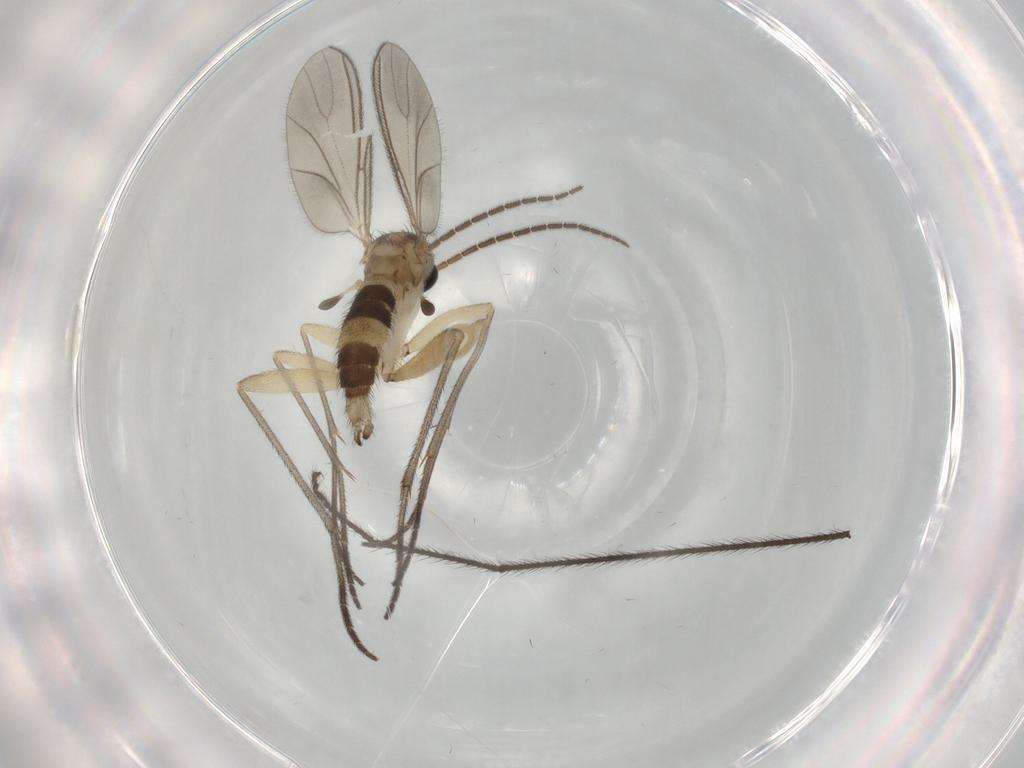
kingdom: Animalia
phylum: Arthropoda
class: Insecta
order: Diptera
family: Limoniidae
